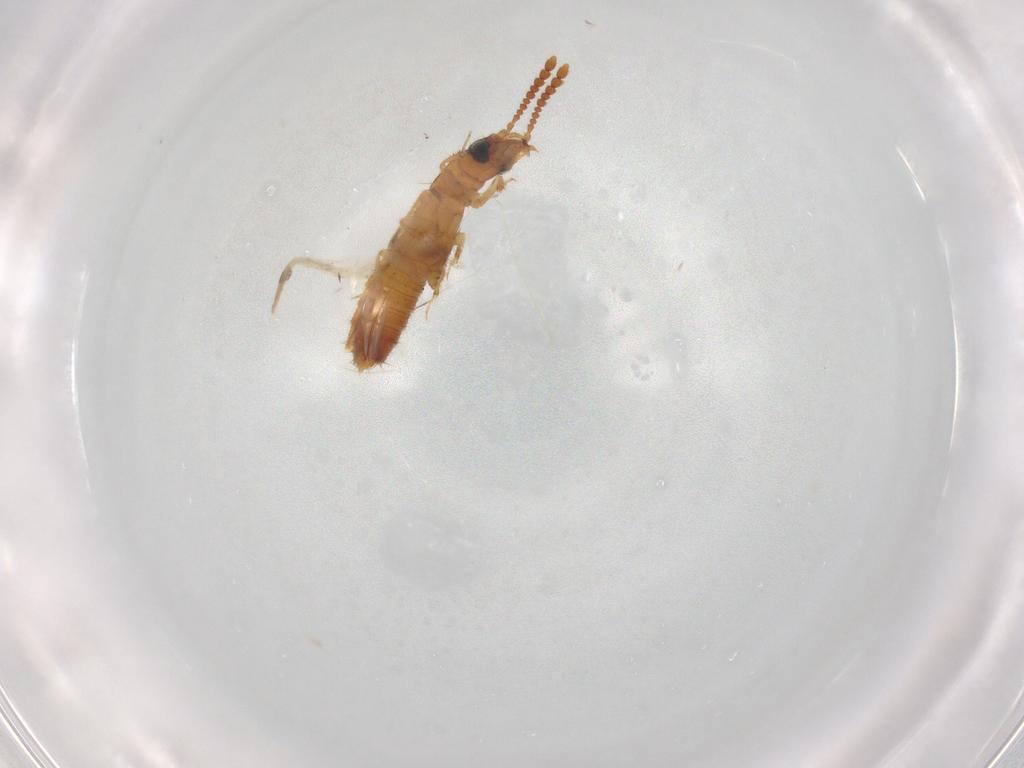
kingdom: Animalia
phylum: Arthropoda
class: Insecta
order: Coleoptera
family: Staphylinidae
